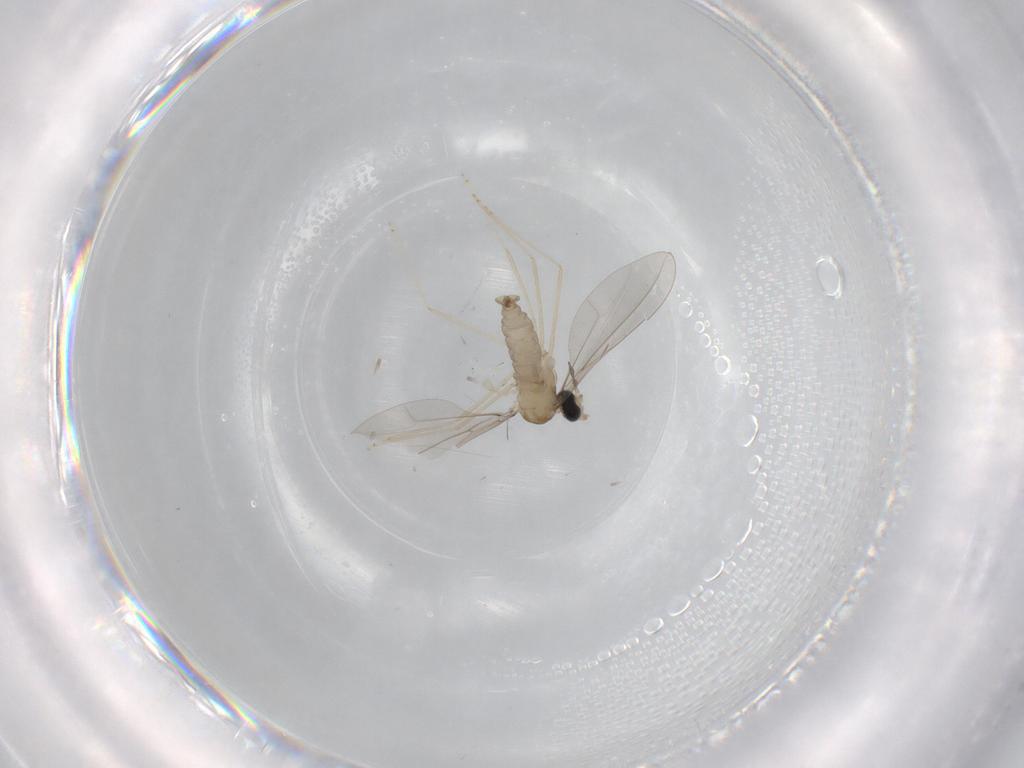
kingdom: Animalia
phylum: Arthropoda
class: Insecta
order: Diptera
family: Cecidomyiidae
